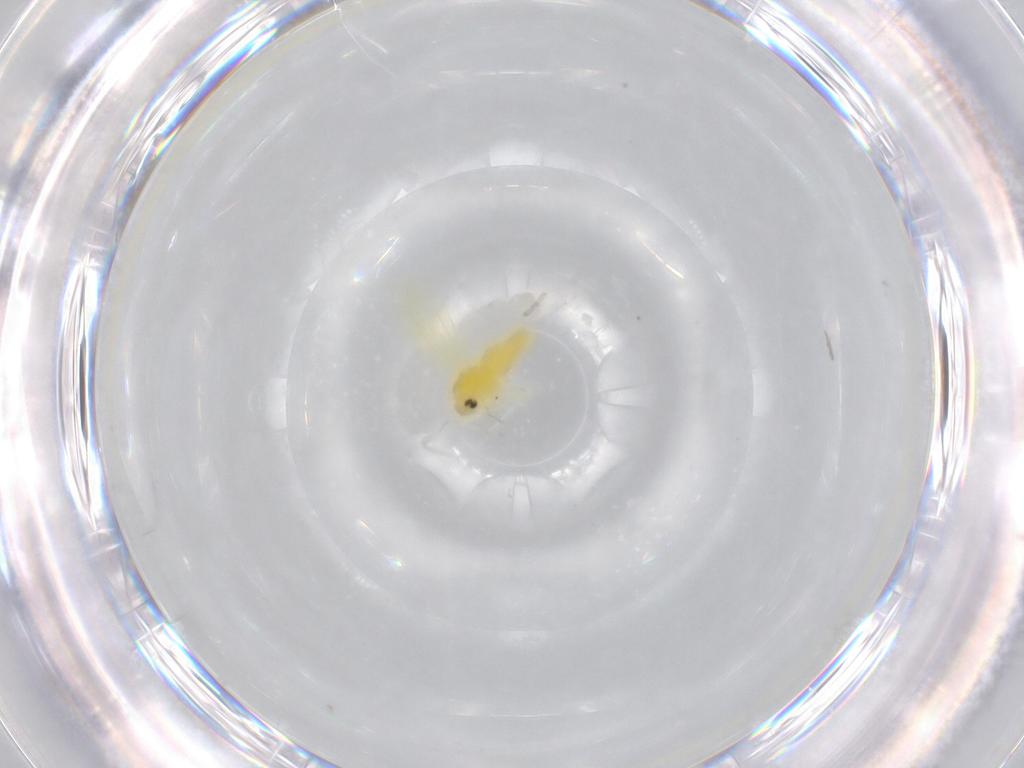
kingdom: Animalia
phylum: Arthropoda
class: Insecta
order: Hemiptera
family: Aleyrodidae
